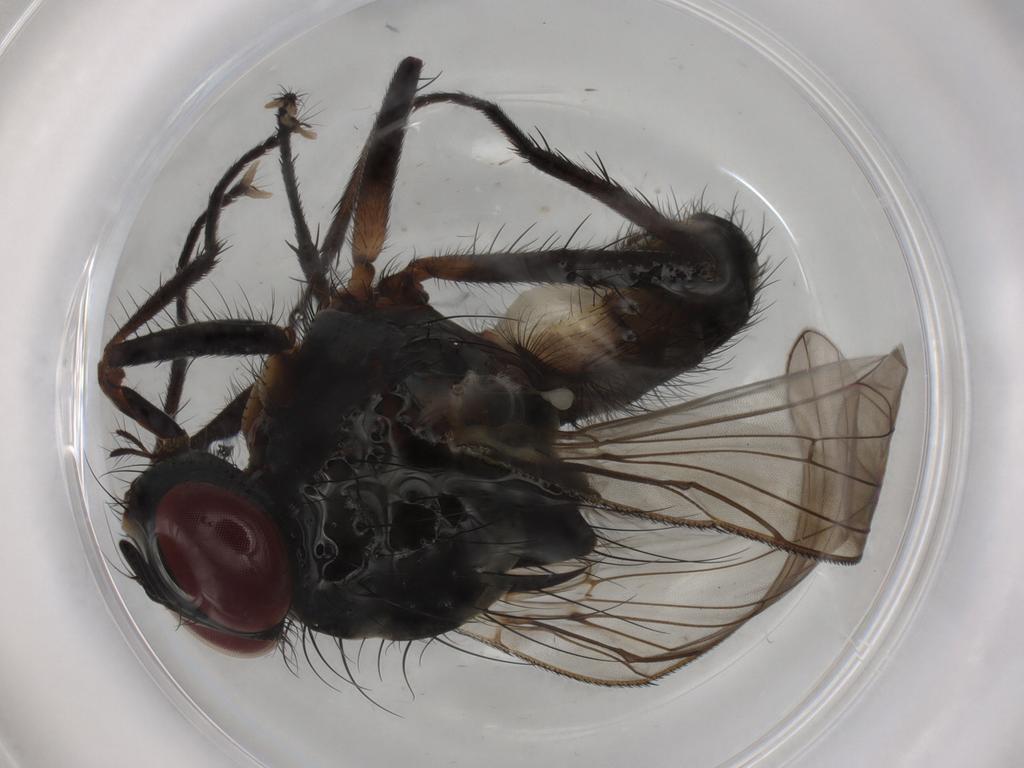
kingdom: Animalia
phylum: Arthropoda
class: Insecta
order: Diptera
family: Anthomyiidae
